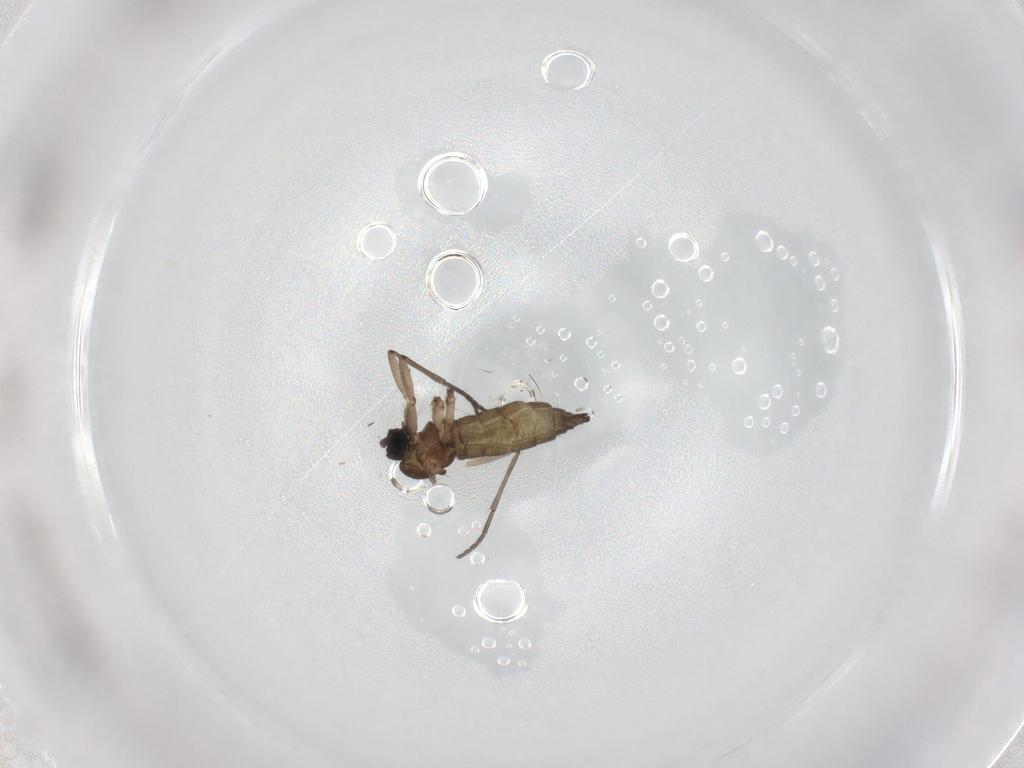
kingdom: Animalia
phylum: Arthropoda
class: Insecta
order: Diptera
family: Sciaridae
